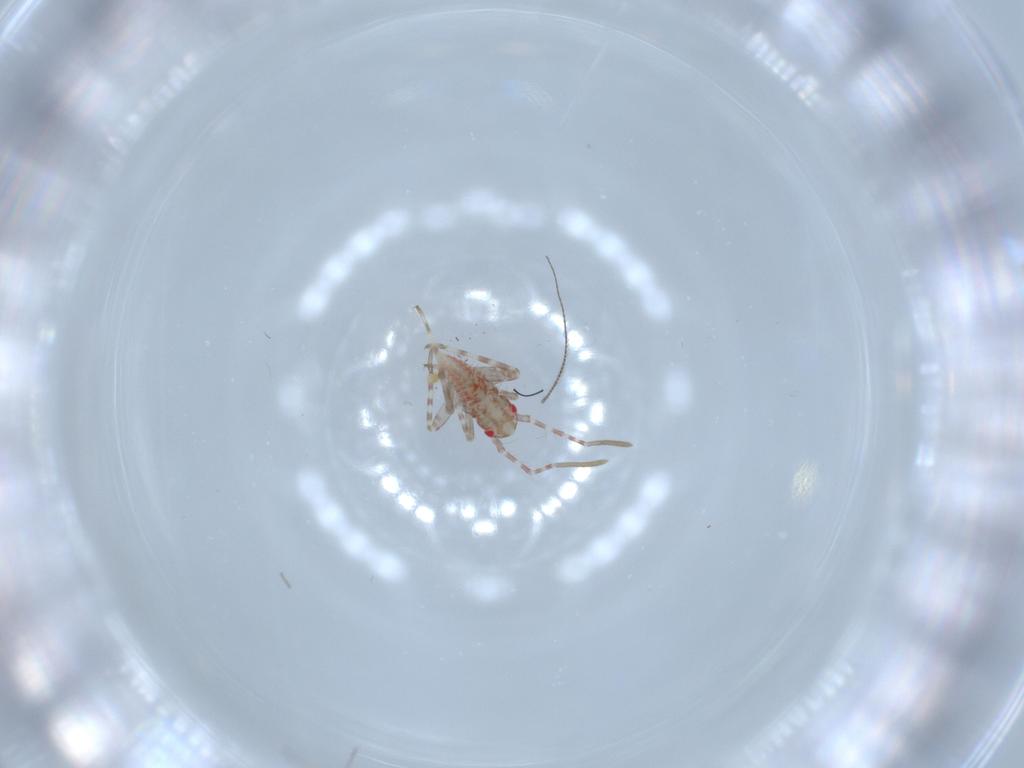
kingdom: Animalia
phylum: Arthropoda
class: Insecta
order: Hemiptera
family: Miridae
